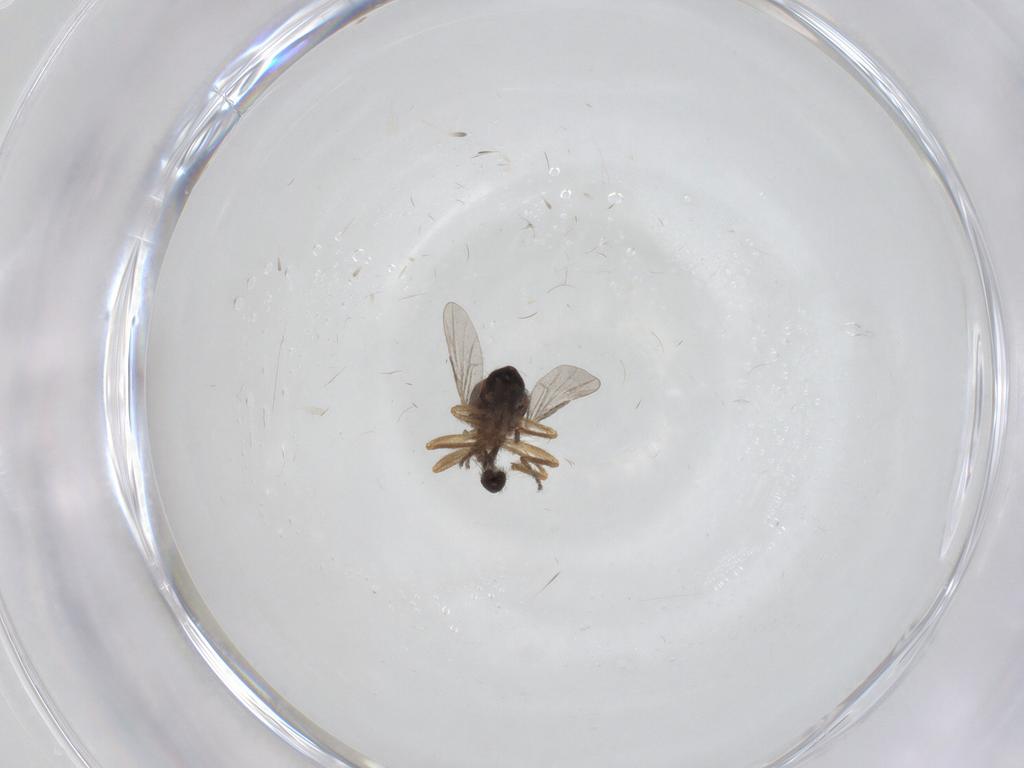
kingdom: Animalia
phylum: Arthropoda
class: Insecta
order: Diptera
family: Ceratopogonidae
